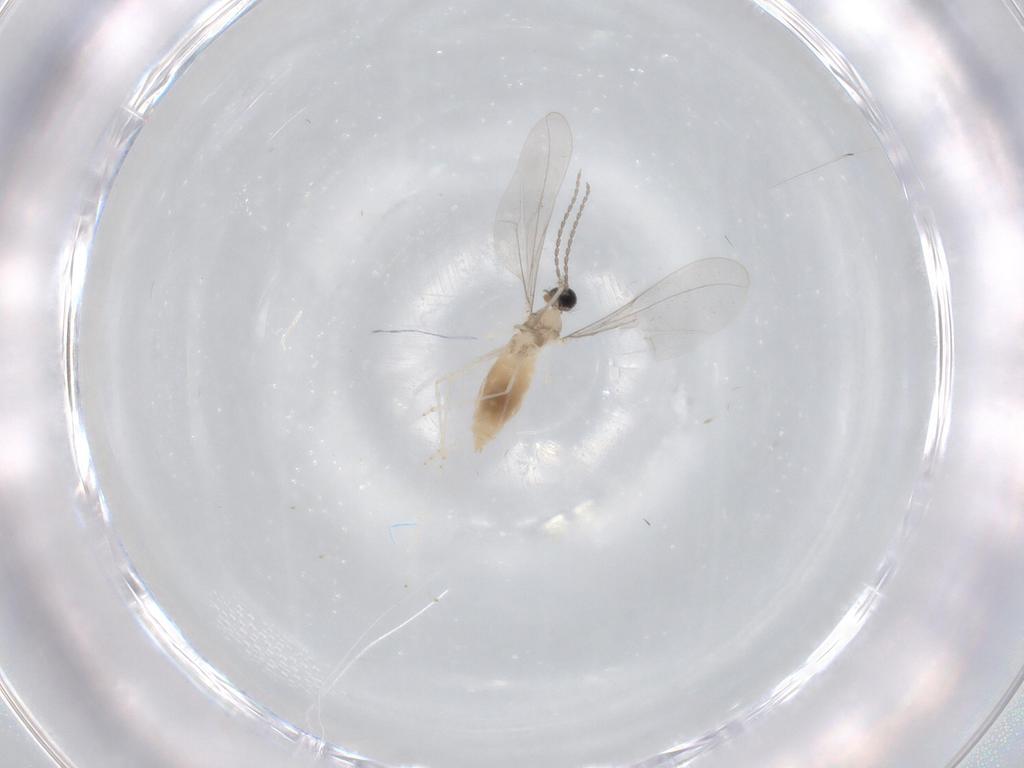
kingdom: Animalia
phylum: Arthropoda
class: Insecta
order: Diptera
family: Cecidomyiidae
